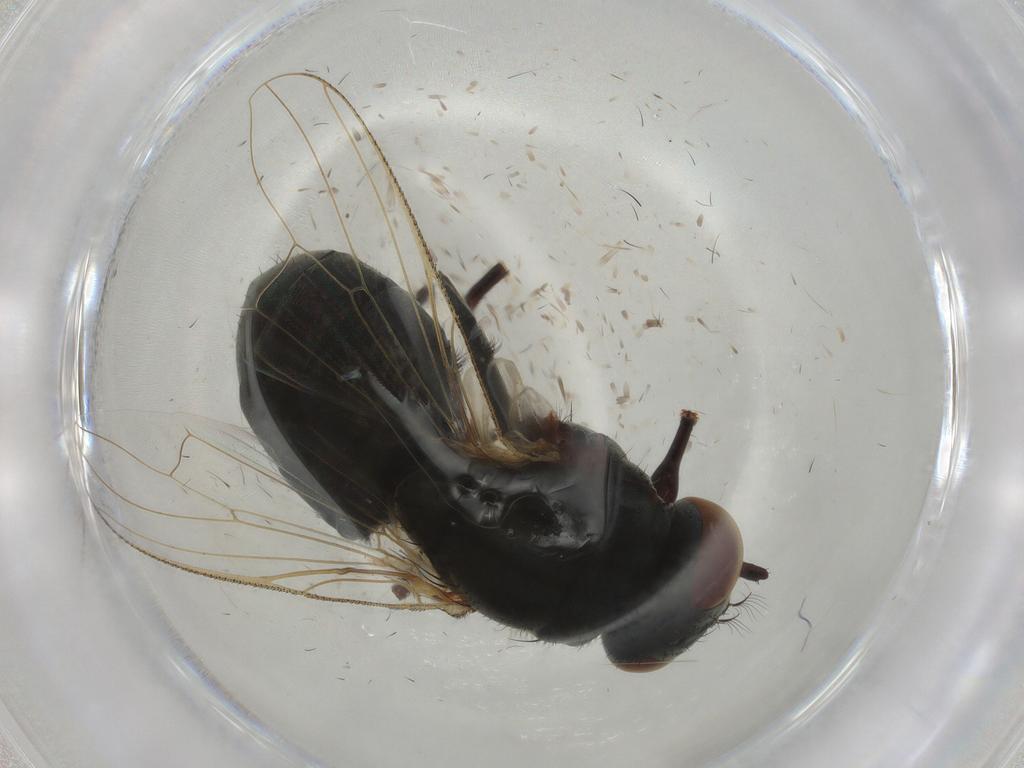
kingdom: Animalia
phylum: Arthropoda
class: Insecta
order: Diptera
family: Muscidae
